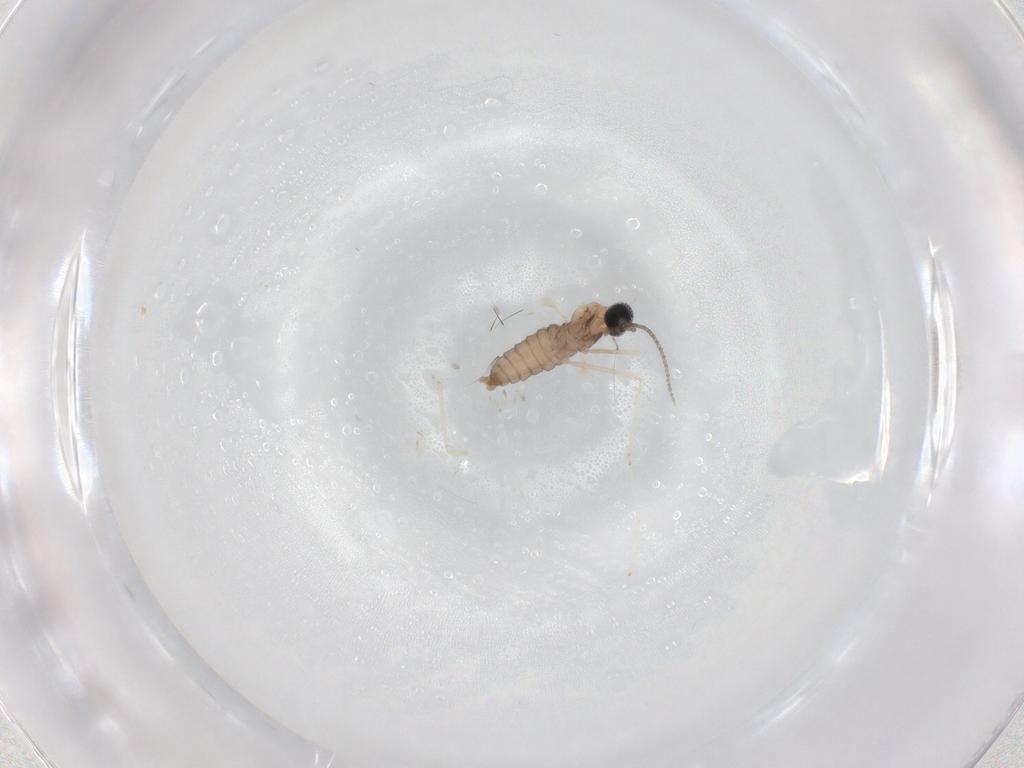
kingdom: Animalia
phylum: Arthropoda
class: Insecta
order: Diptera
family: Cecidomyiidae
